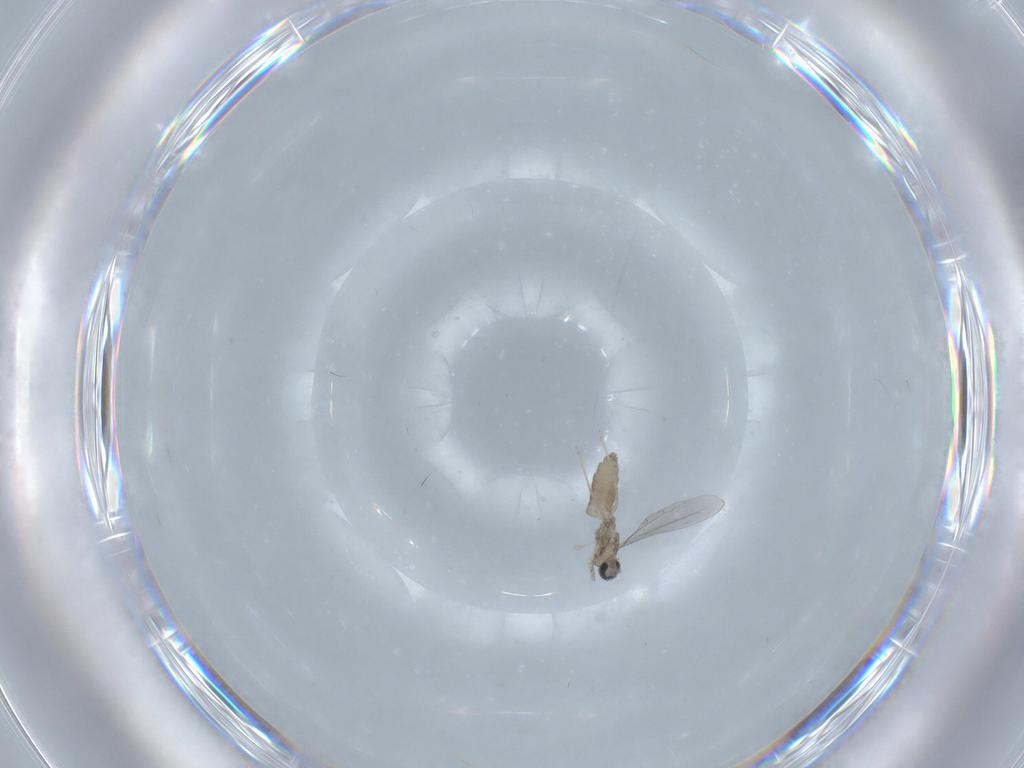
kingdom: Animalia
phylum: Arthropoda
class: Insecta
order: Diptera
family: Cecidomyiidae
